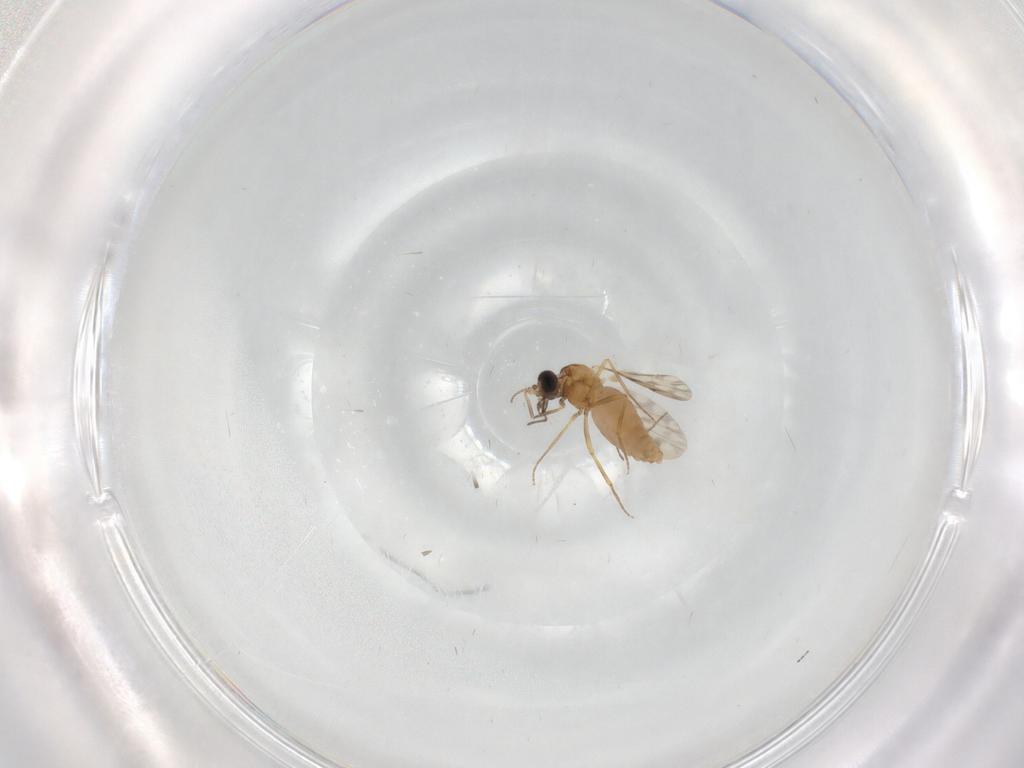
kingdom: Animalia
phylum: Arthropoda
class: Insecta
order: Diptera
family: Ceratopogonidae
